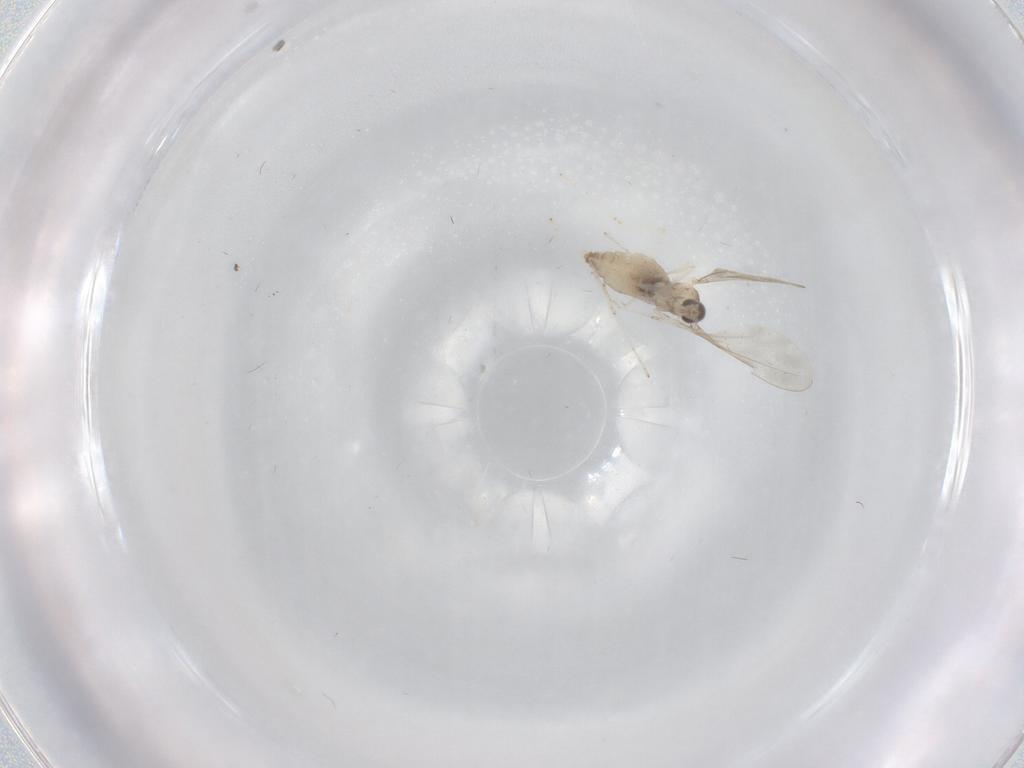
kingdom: Animalia
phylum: Arthropoda
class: Insecta
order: Diptera
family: Cecidomyiidae
